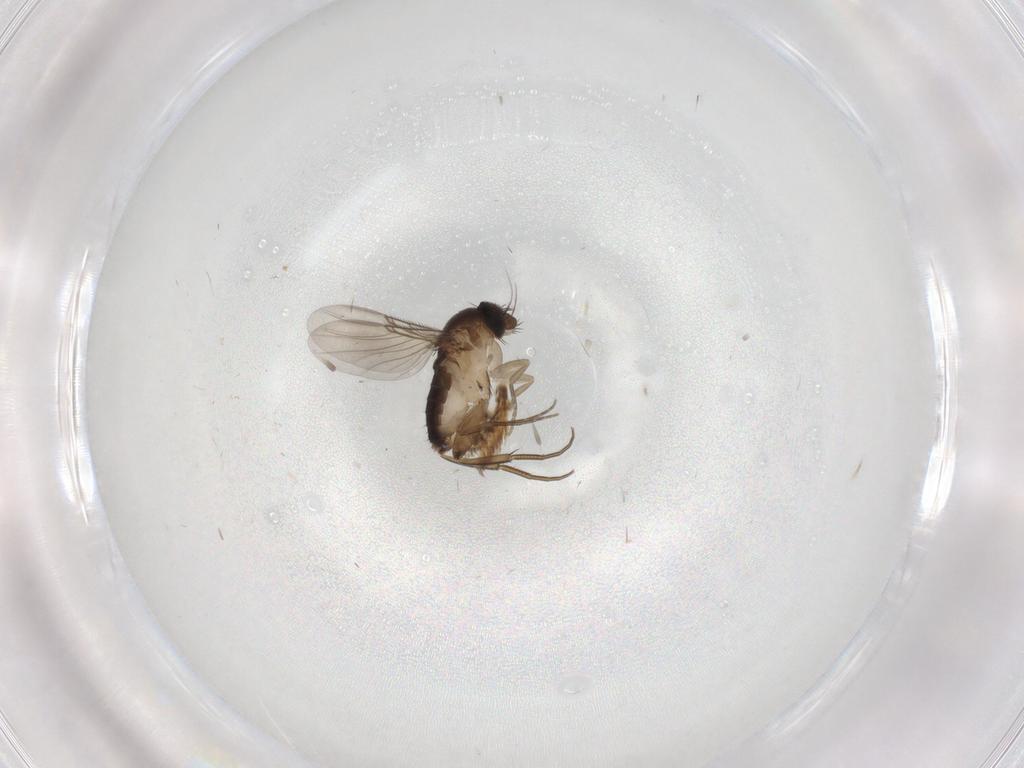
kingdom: Animalia
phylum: Arthropoda
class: Insecta
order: Diptera
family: Phoridae
